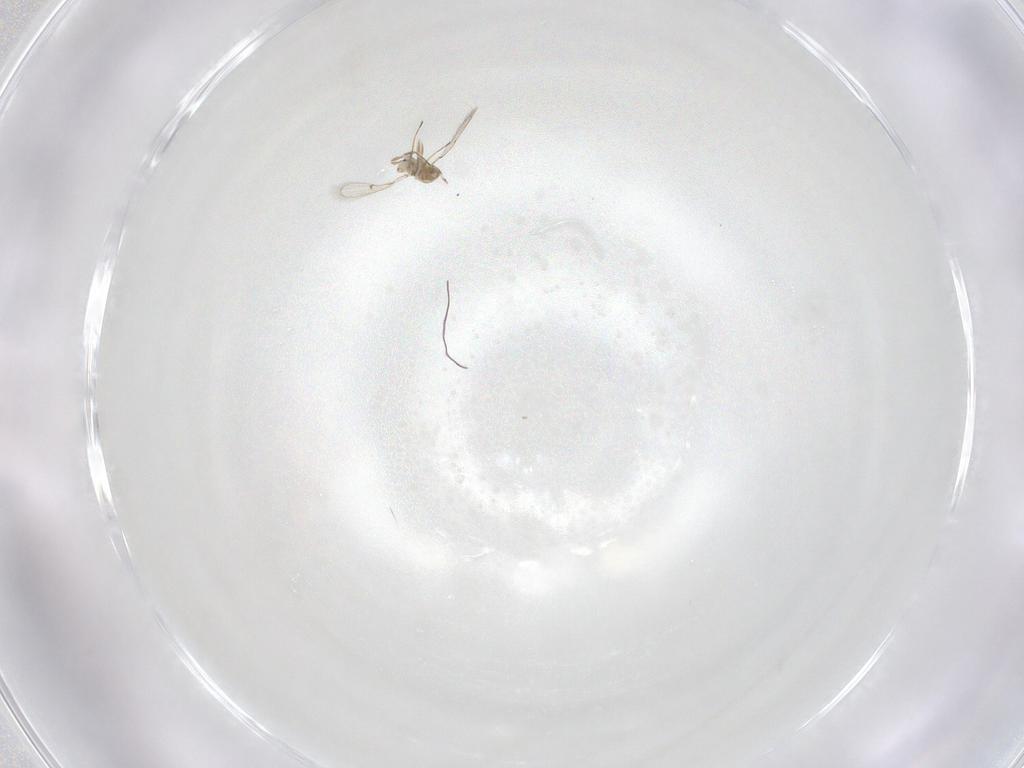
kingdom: Animalia
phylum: Arthropoda
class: Insecta
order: Hymenoptera
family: Trichogrammatidae
